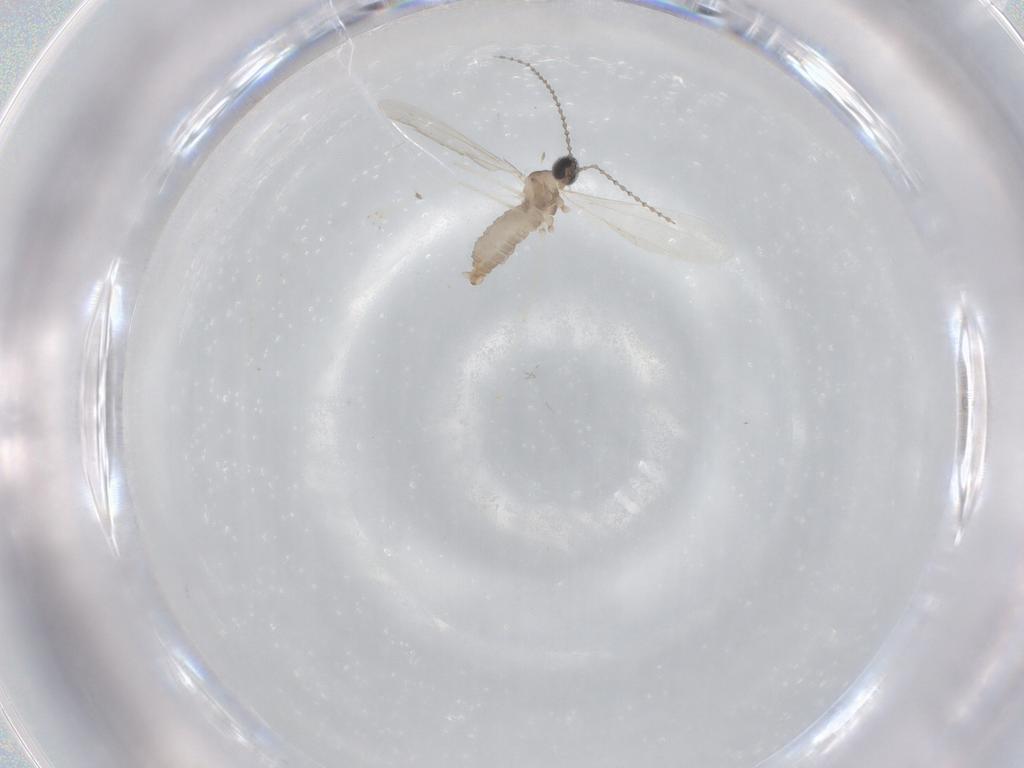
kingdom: Animalia
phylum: Arthropoda
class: Insecta
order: Diptera
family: Cecidomyiidae
